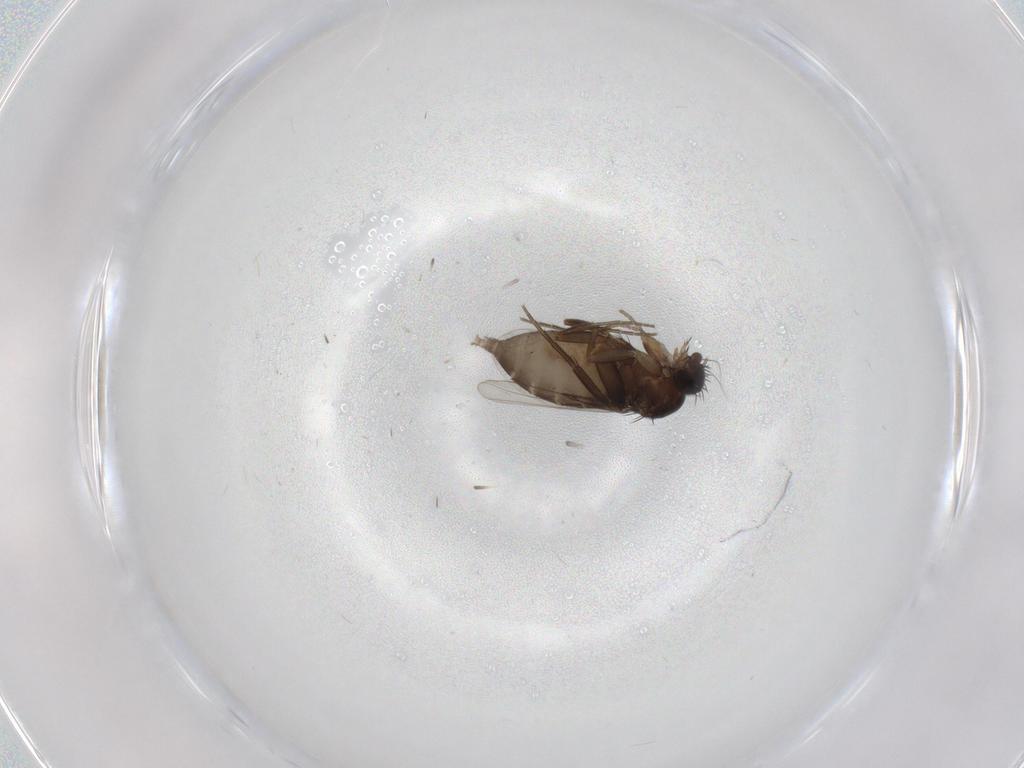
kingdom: Animalia
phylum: Arthropoda
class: Insecta
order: Diptera
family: Phoridae
